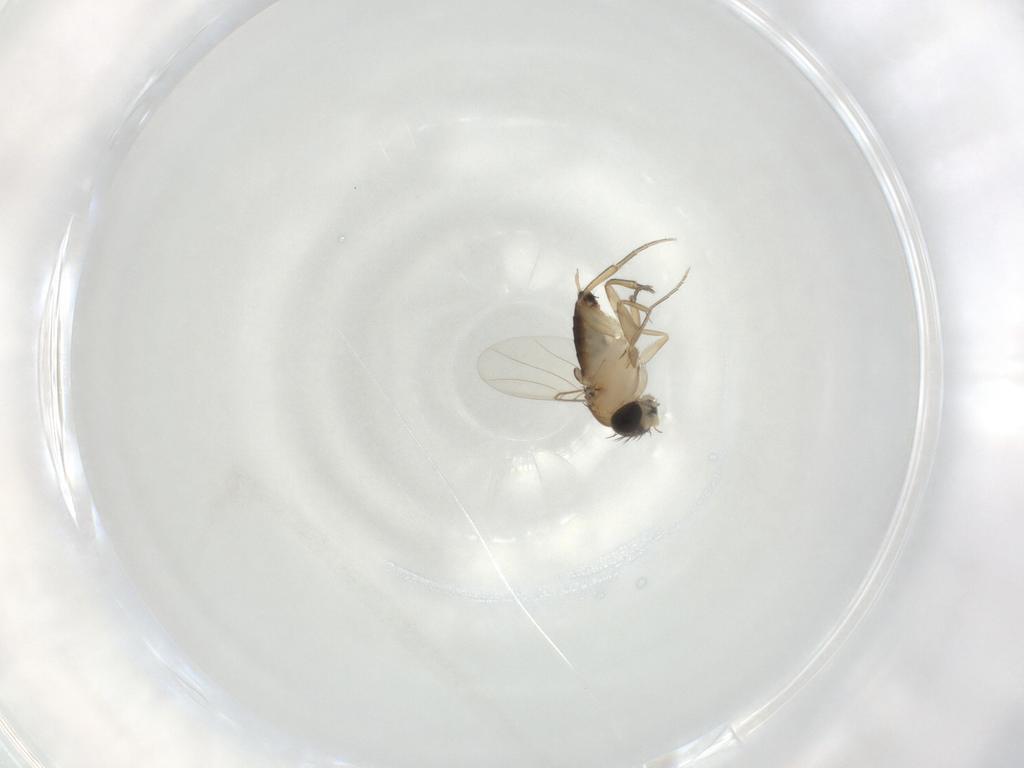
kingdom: Animalia
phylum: Arthropoda
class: Insecta
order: Diptera
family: Phoridae
